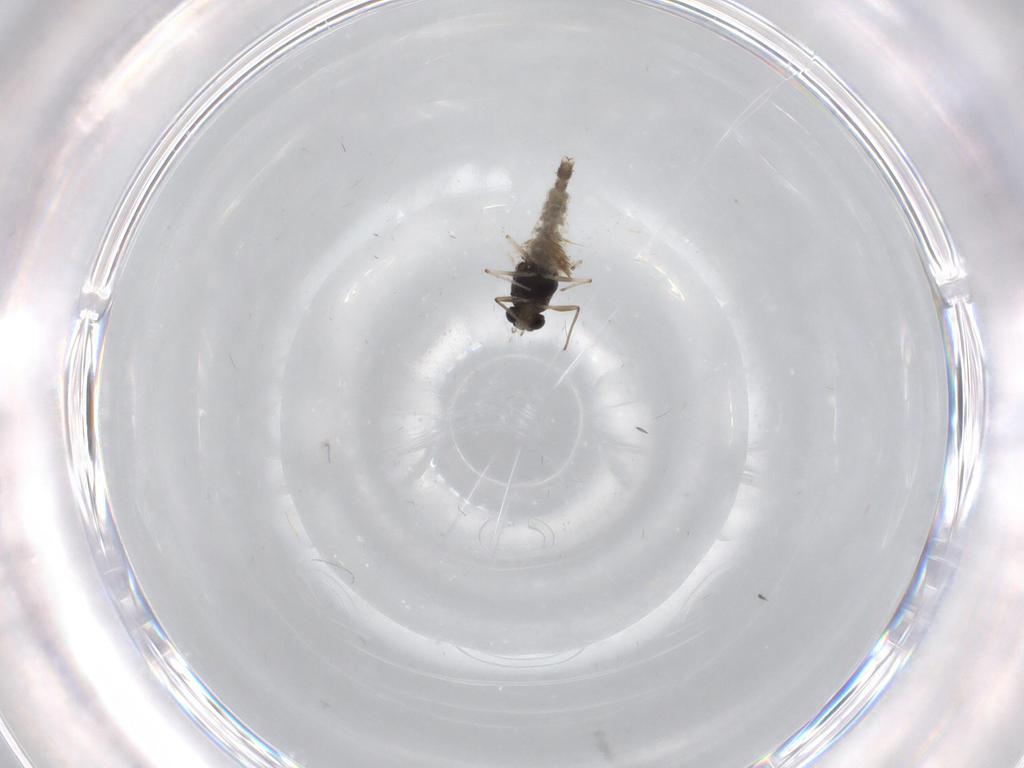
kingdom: Animalia
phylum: Arthropoda
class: Insecta
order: Diptera
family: Chironomidae
